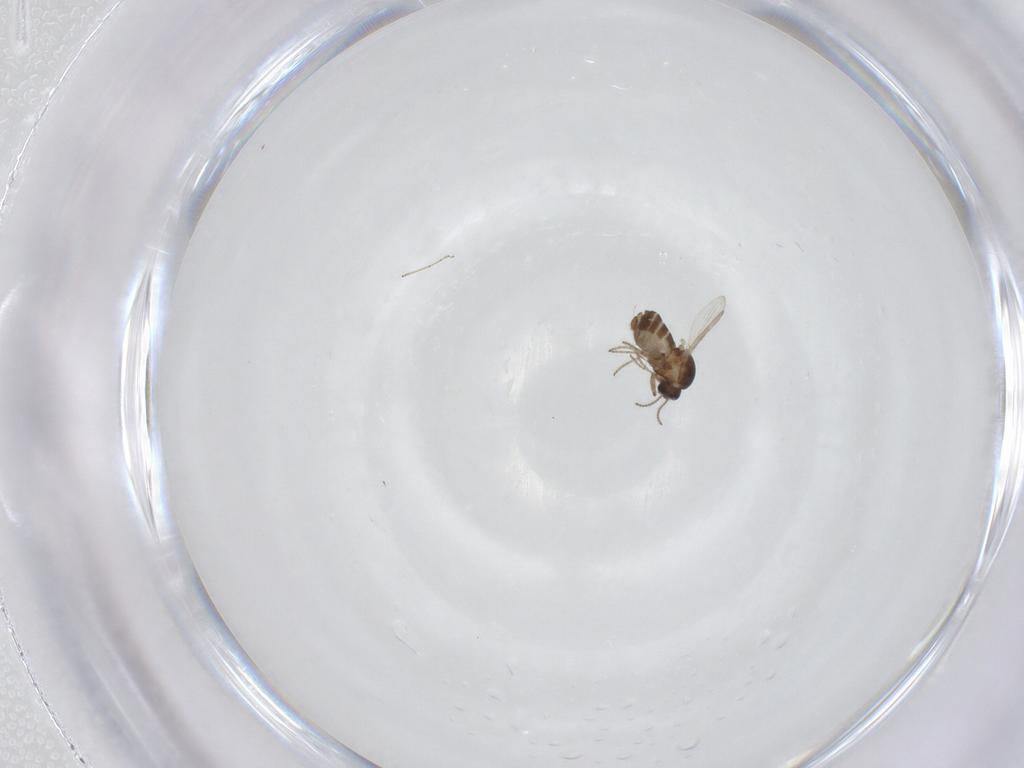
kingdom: Animalia
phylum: Arthropoda
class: Insecta
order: Diptera
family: Ceratopogonidae
